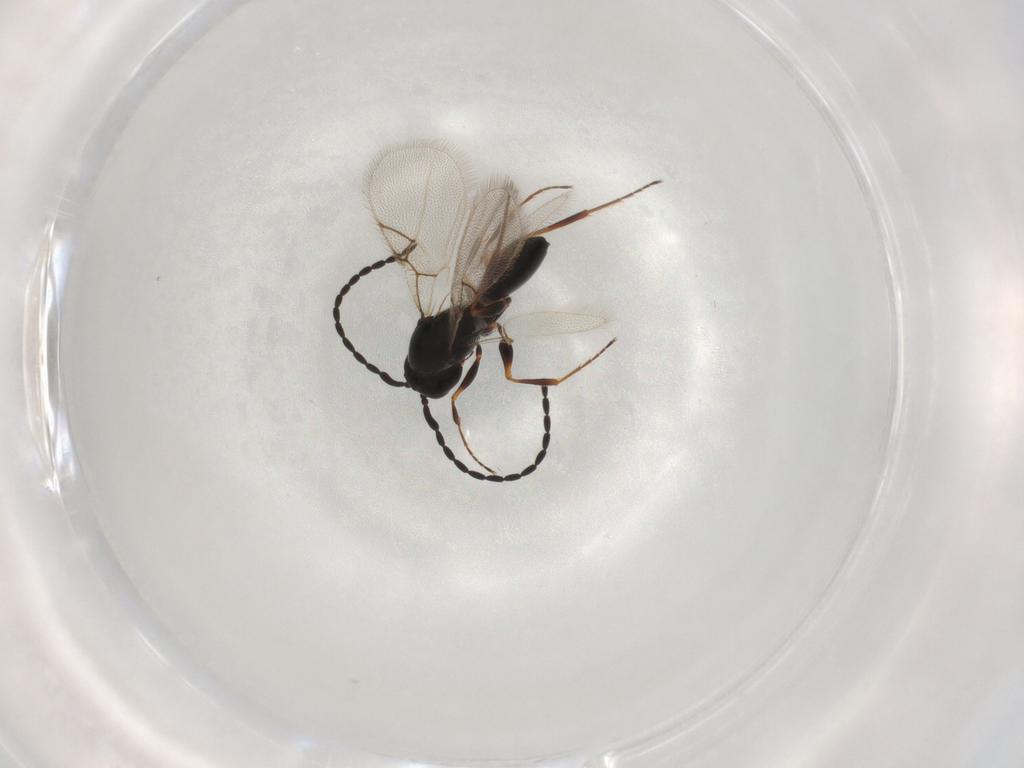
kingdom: Animalia
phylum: Arthropoda
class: Insecta
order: Hymenoptera
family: Figitidae
